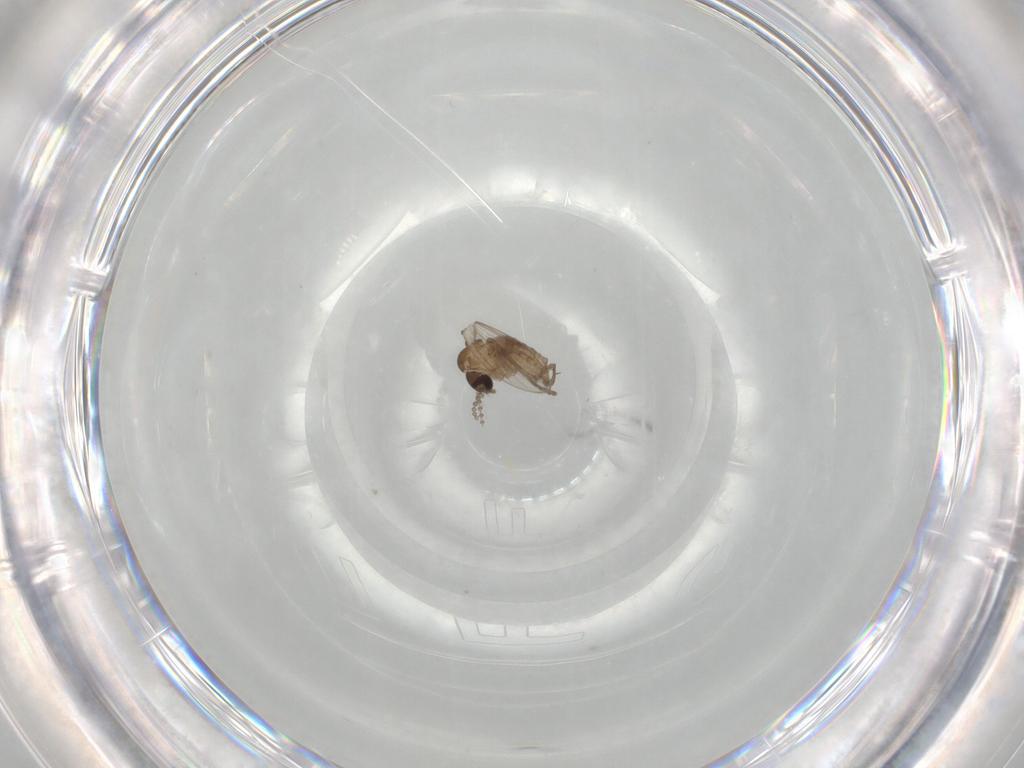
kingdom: Animalia
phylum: Arthropoda
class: Insecta
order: Diptera
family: Psychodidae
